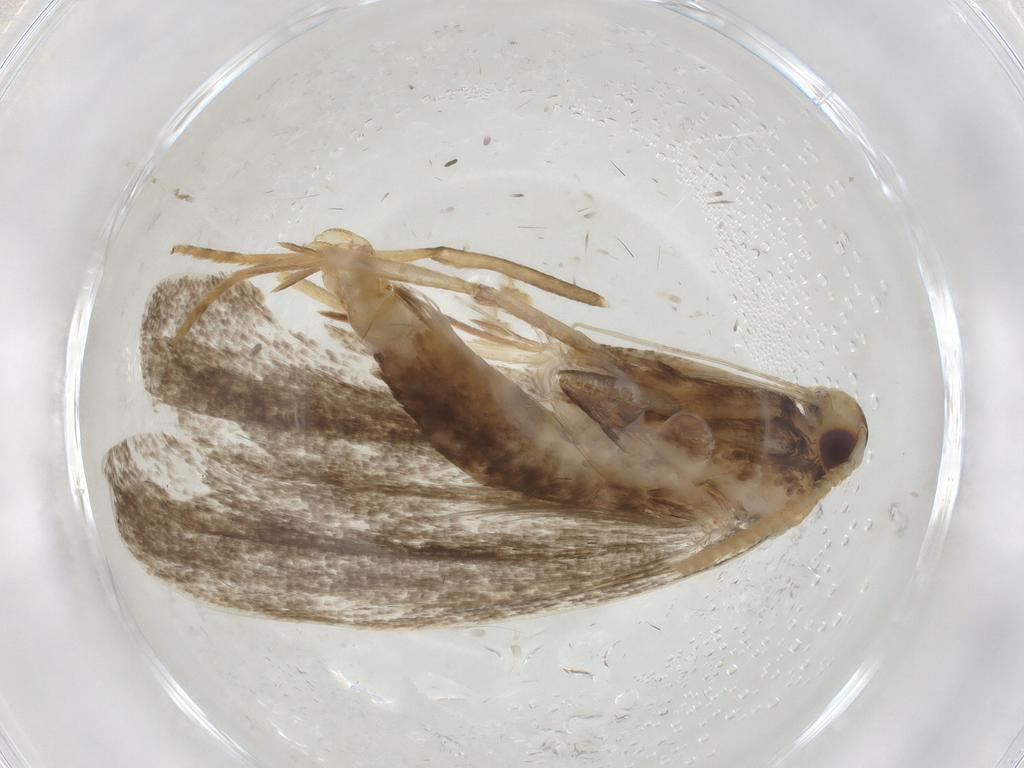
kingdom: Animalia
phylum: Arthropoda
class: Insecta
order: Lepidoptera
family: Lecithoceridae
